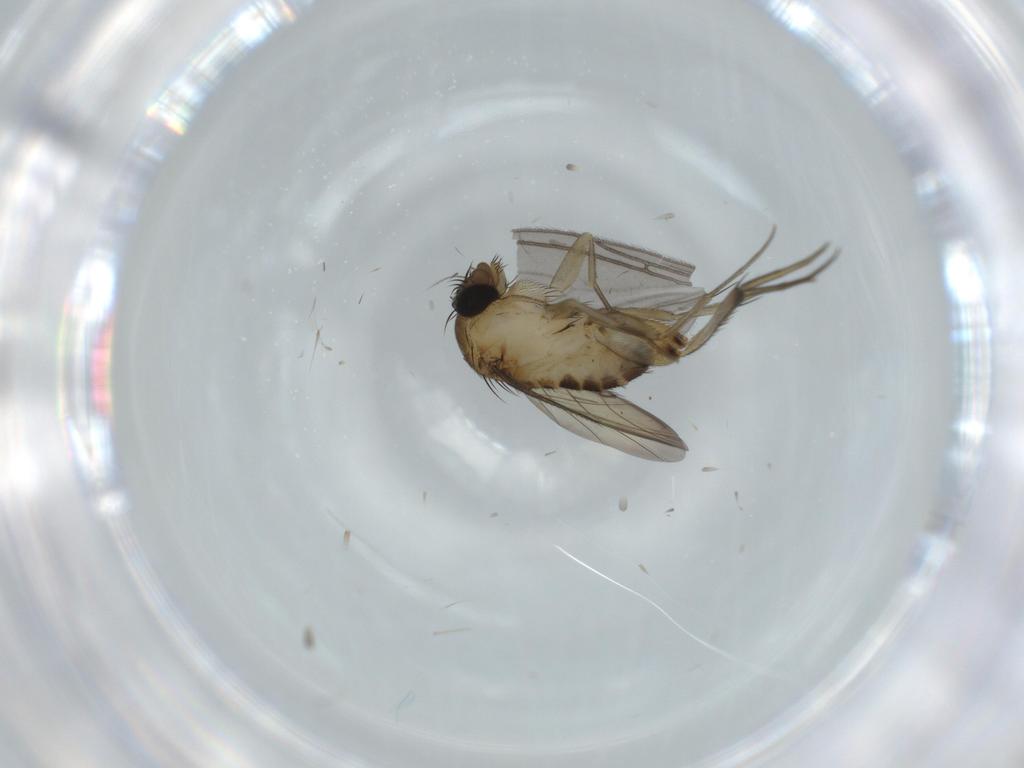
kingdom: Animalia
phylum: Arthropoda
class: Insecta
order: Diptera
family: Phoridae
